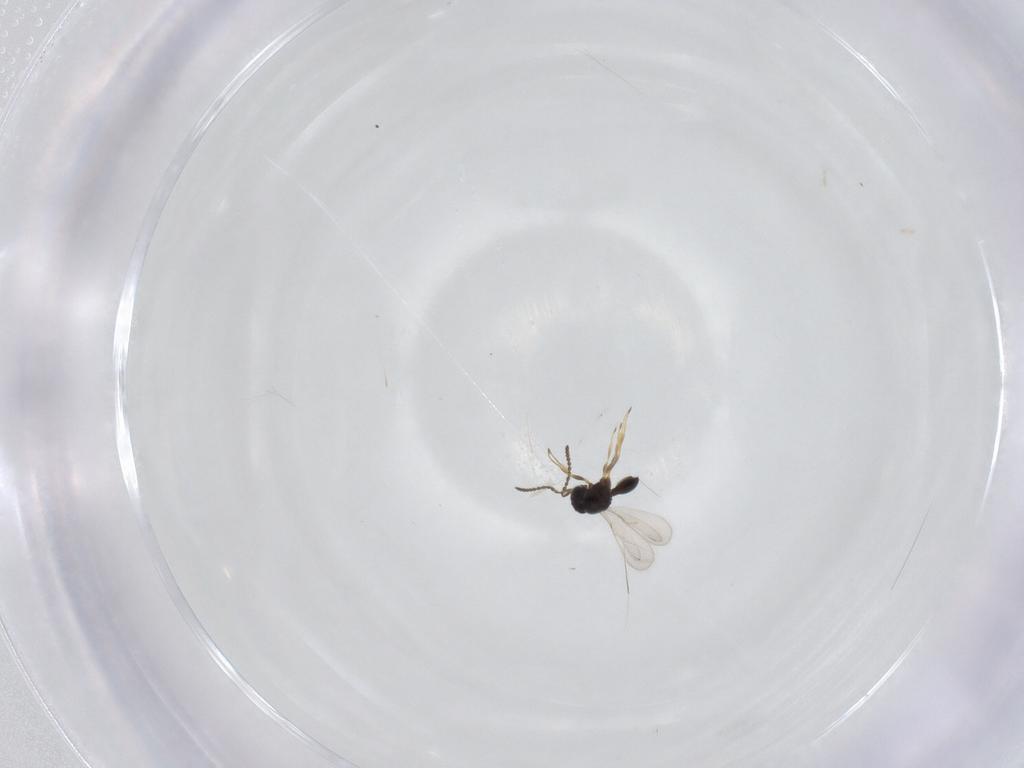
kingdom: Animalia
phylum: Arthropoda
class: Insecta
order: Hymenoptera
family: Scelionidae
